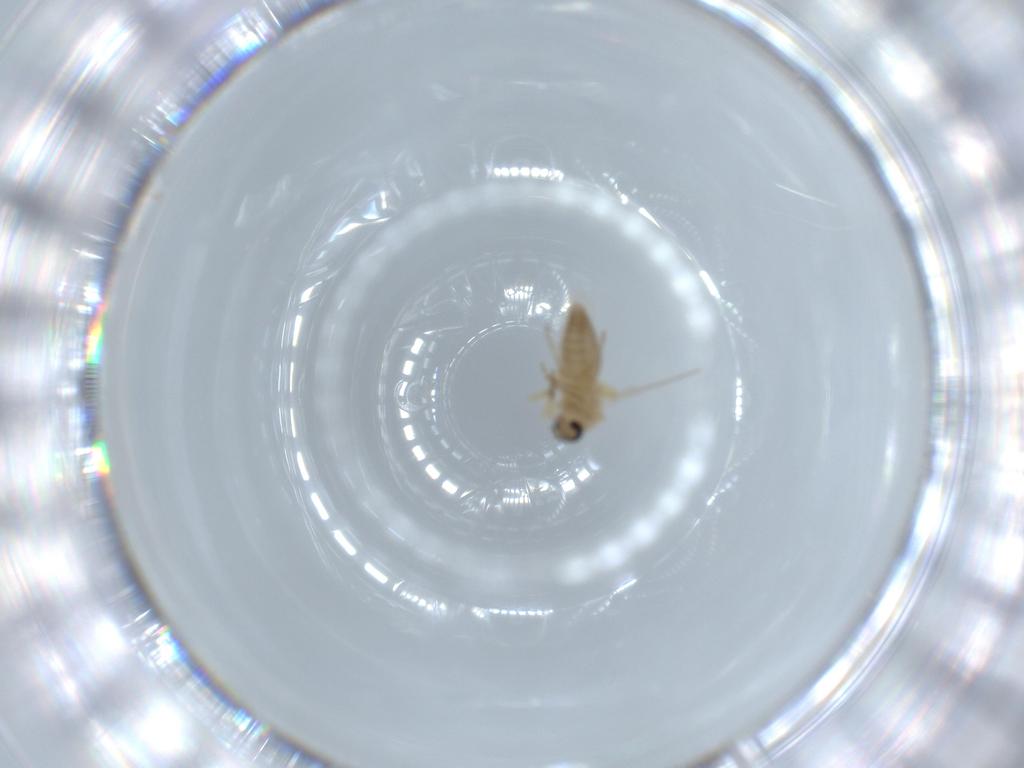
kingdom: Animalia
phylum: Arthropoda
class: Insecta
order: Diptera
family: Ceratopogonidae
